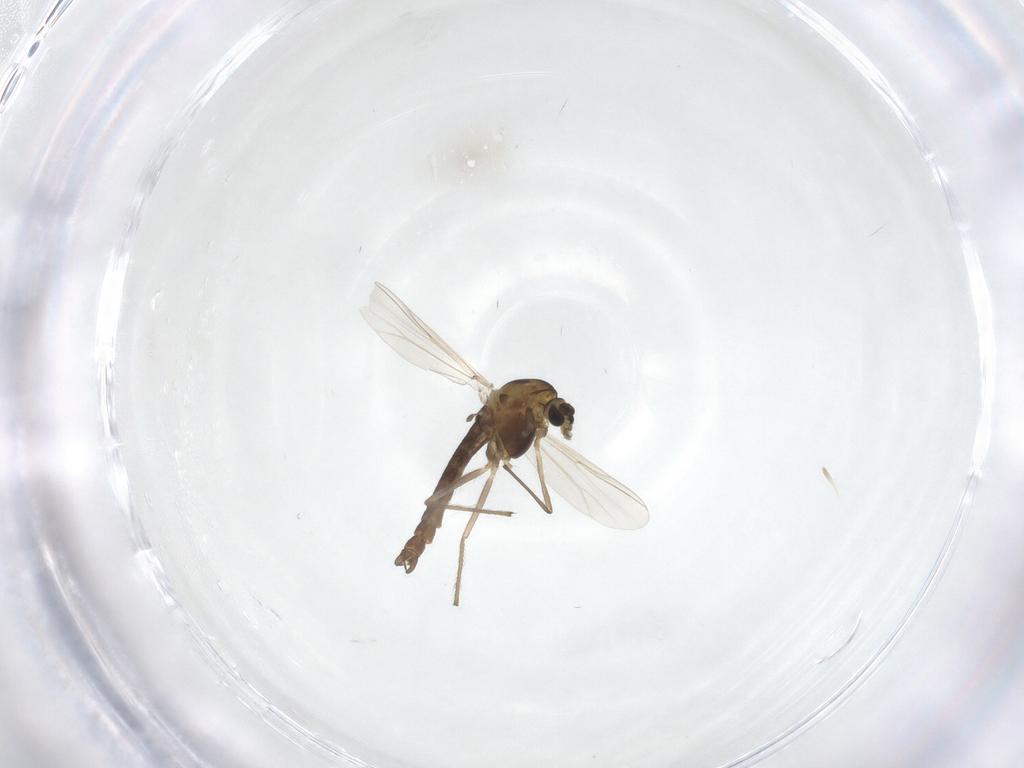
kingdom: Animalia
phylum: Arthropoda
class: Insecta
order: Diptera
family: Chironomidae
